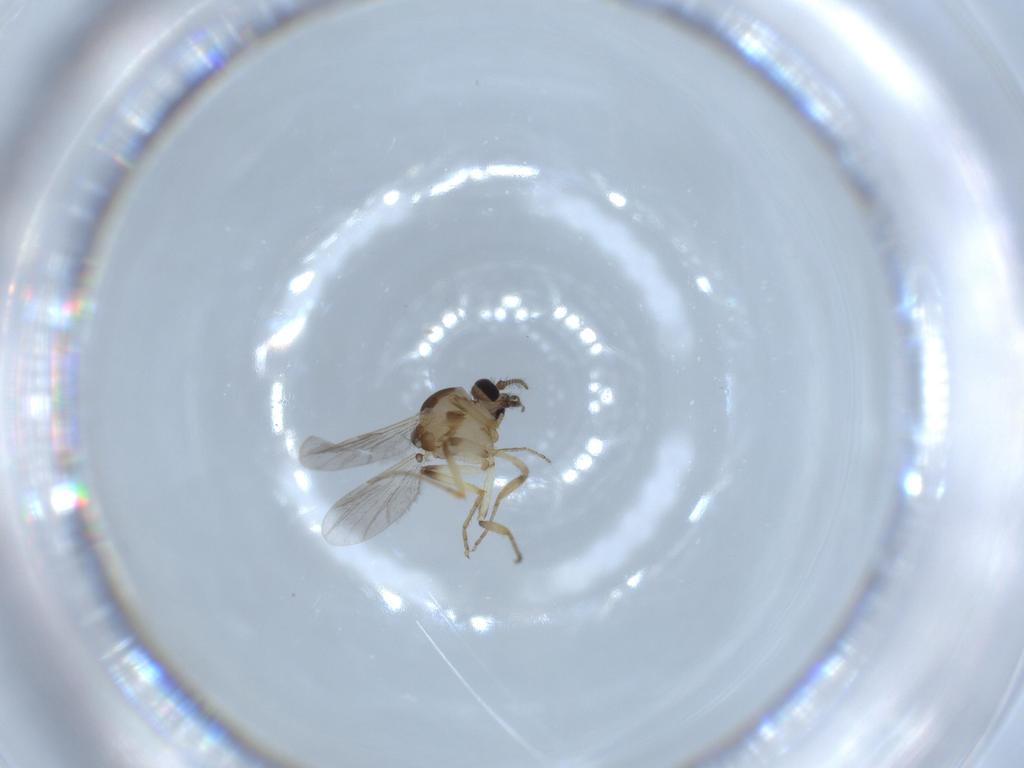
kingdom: Animalia
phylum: Arthropoda
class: Insecta
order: Diptera
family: Ceratopogonidae
